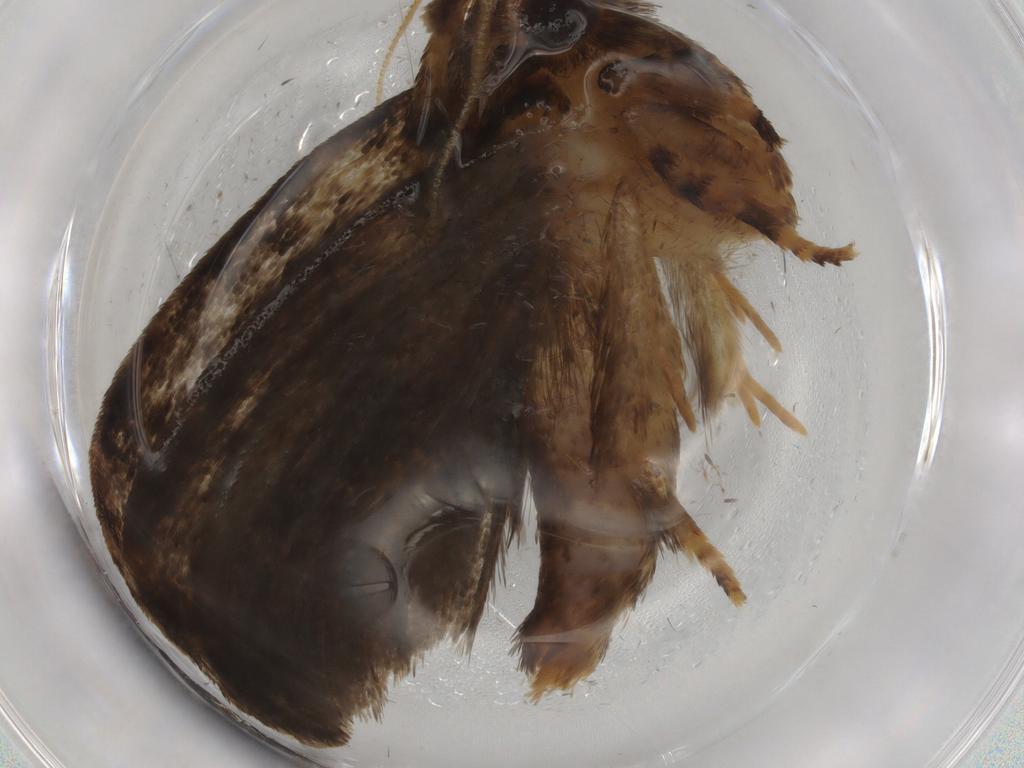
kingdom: Animalia
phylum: Arthropoda
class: Insecta
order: Lepidoptera
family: Tineidae
